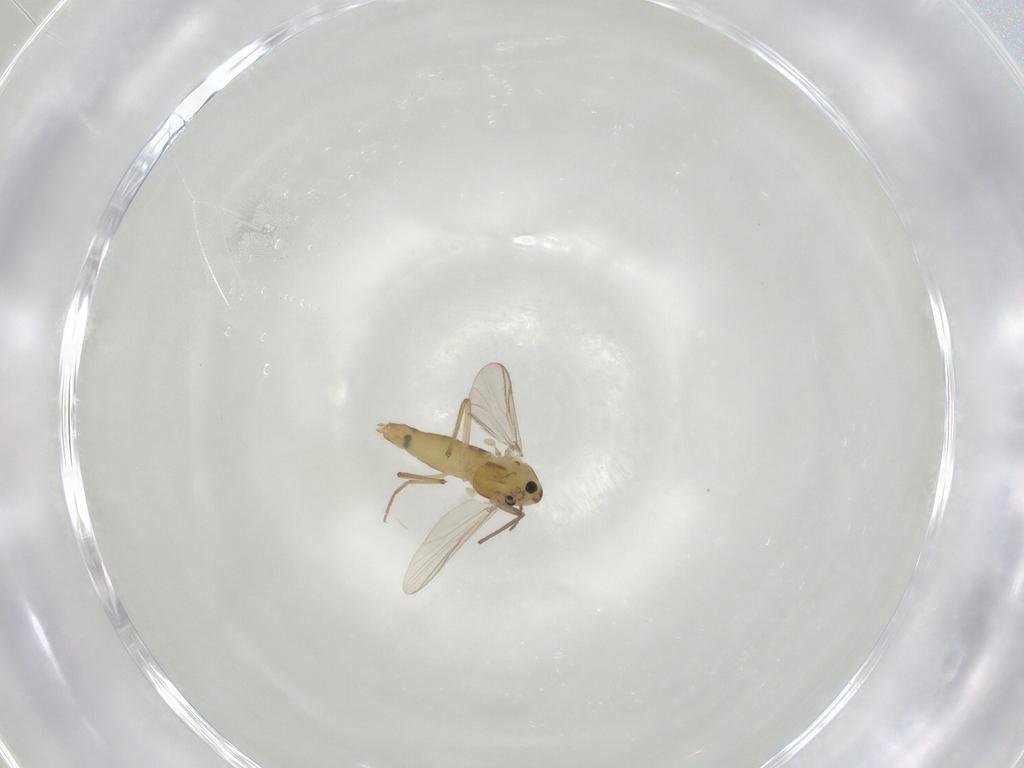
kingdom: Animalia
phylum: Arthropoda
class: Insecta
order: Diptera
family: Chironomidae
